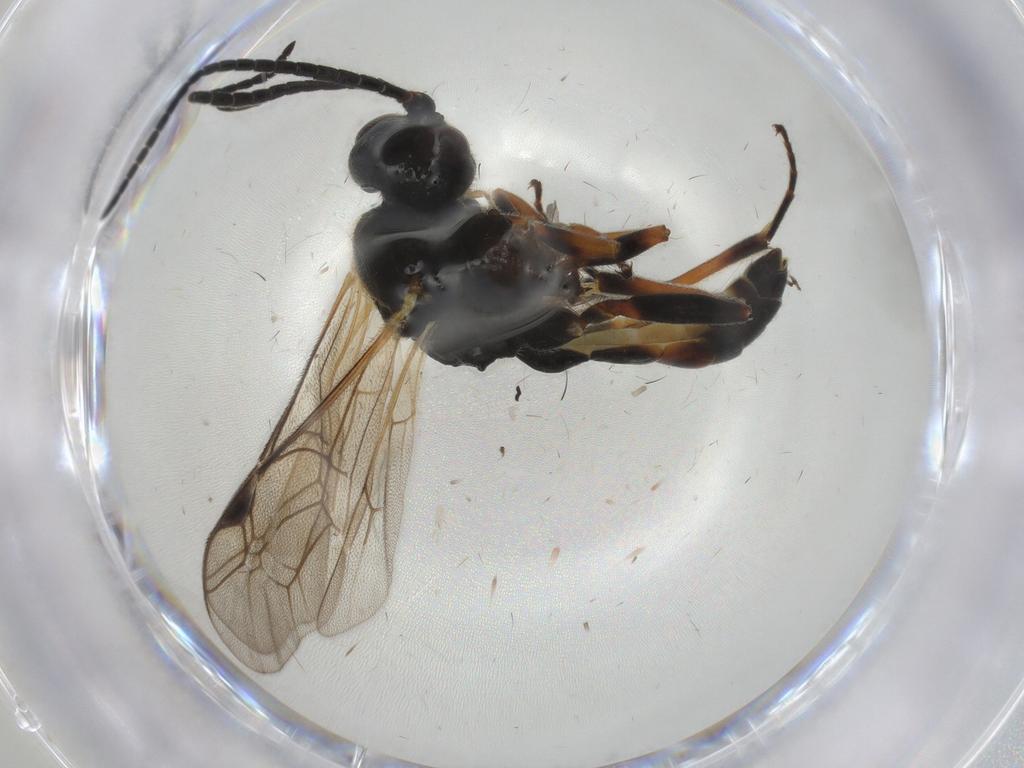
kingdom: Animalia
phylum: Arthropoda
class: Insecta
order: Hymenoptera
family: Ichneumonidae
